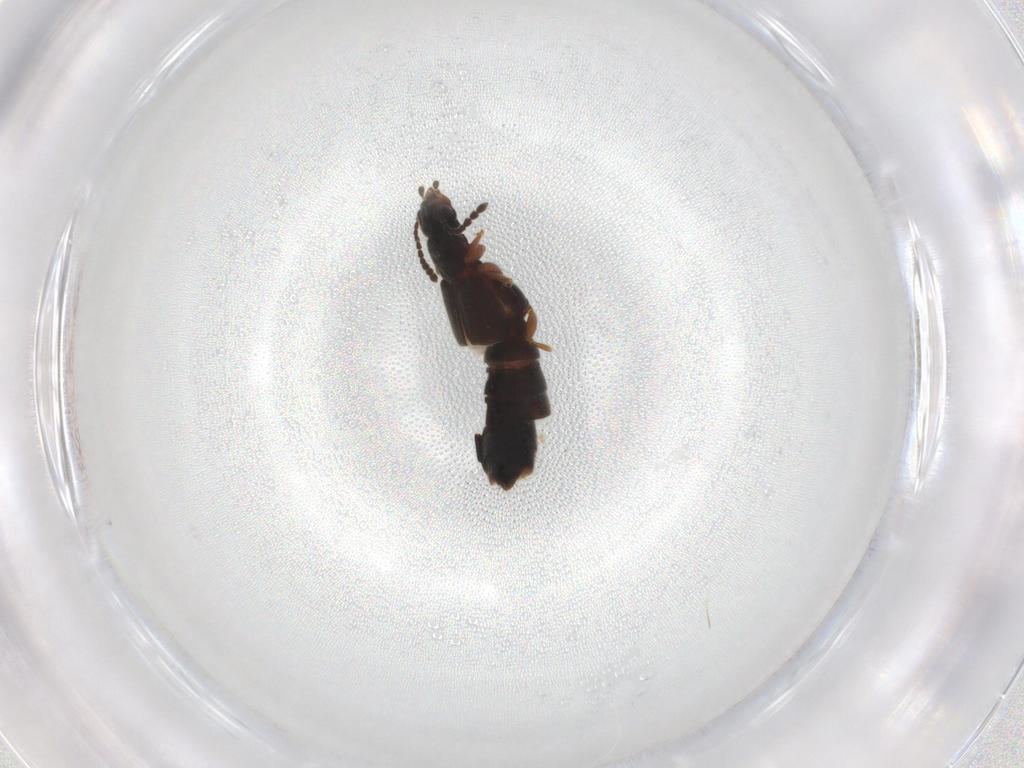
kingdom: Animalia
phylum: Arthropoda
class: Insecta
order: Coleoptera
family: Staphylinidae
